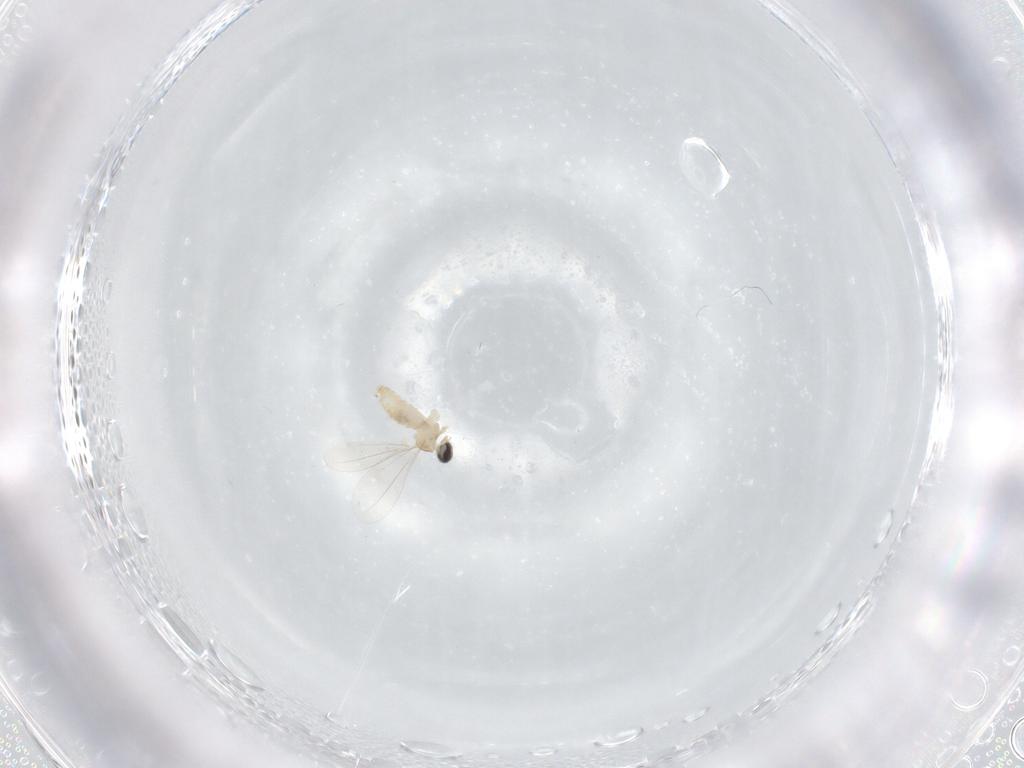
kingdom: Animalia
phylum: Arthropoda
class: Insecta
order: Diptera
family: Cecidomyiidae
